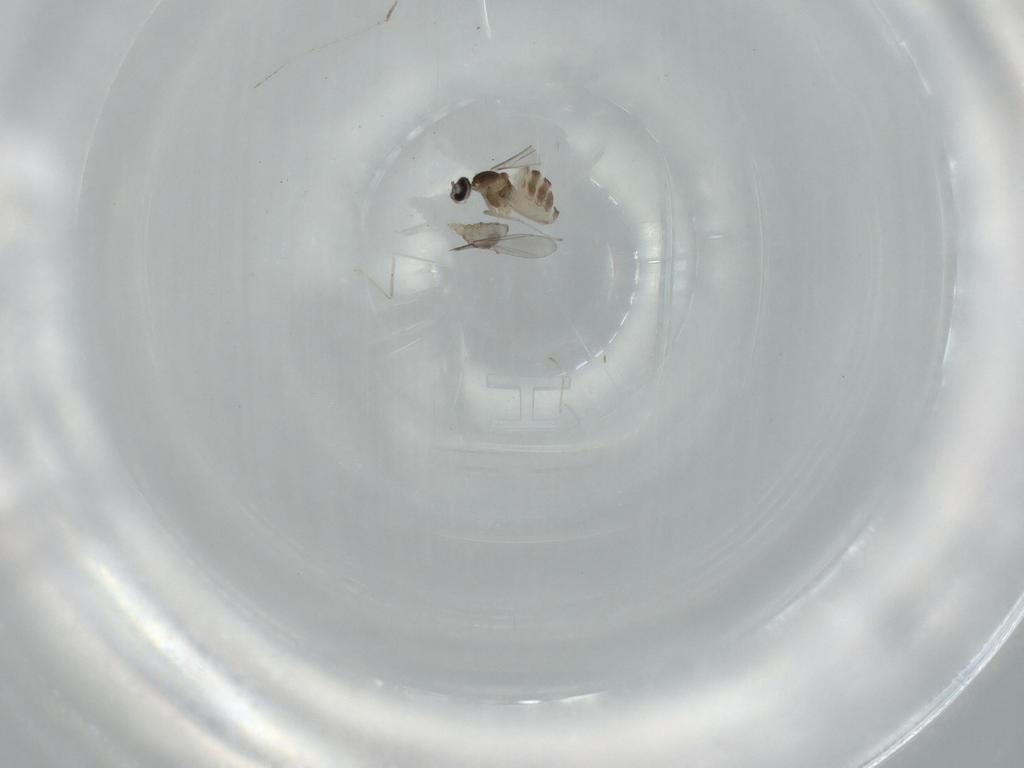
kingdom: Animalia
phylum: Arthropoda
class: Insecta
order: Diptera
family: Cecidomyiidae
